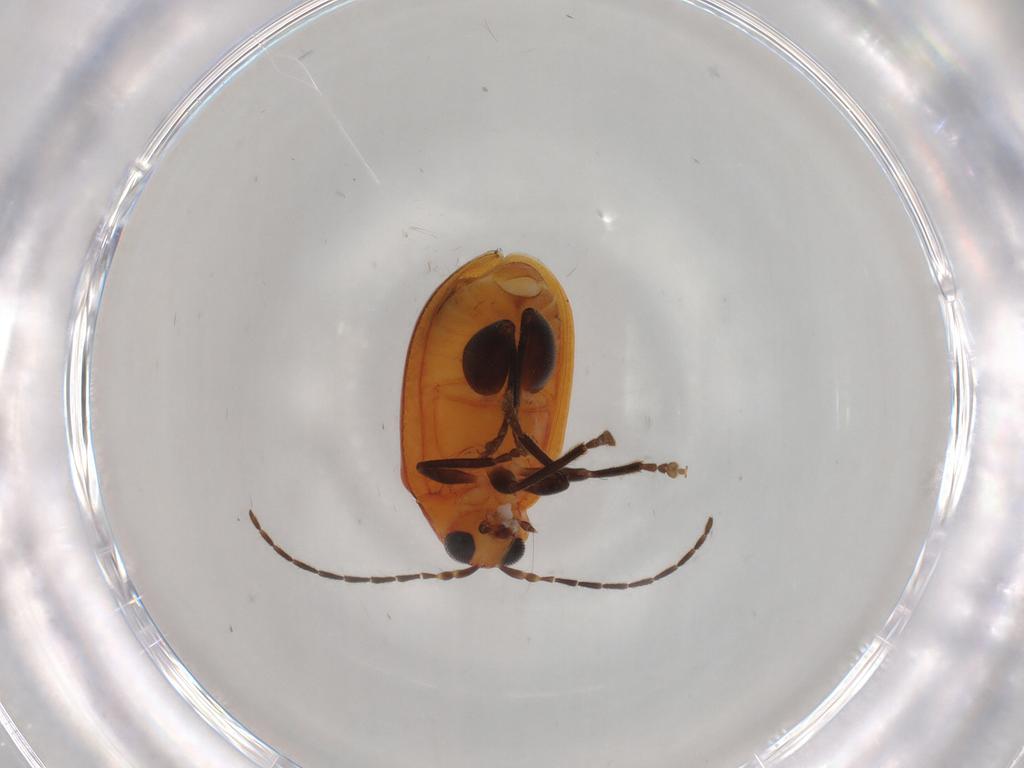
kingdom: Animalia
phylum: Arthropoda
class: Insecta
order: Coleoptera
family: Chrysomelidae
